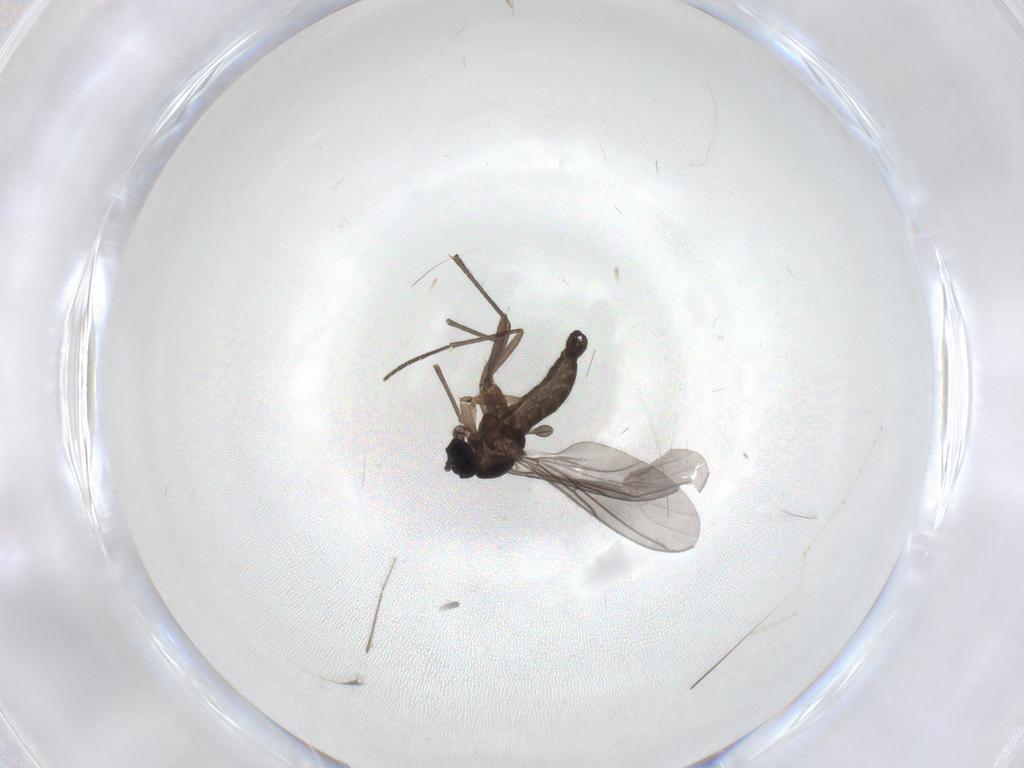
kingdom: Animalia
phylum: Arthropoda
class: Insecta
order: Diptera
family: Cecidomyiidae
